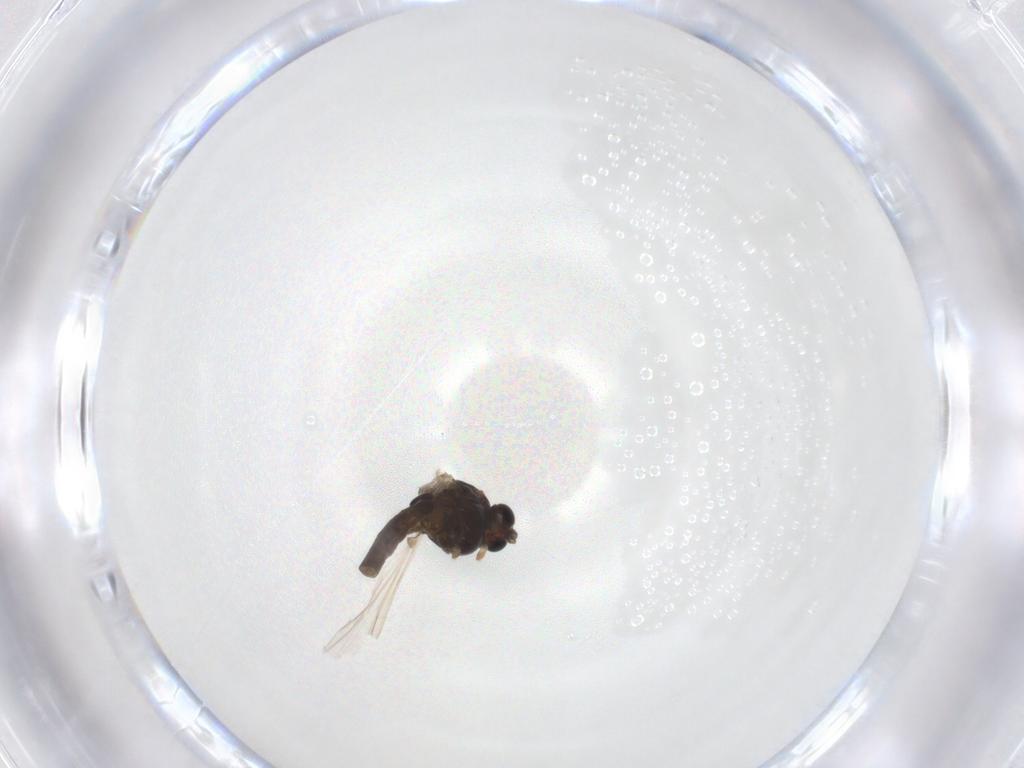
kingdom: Animalia
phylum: Arthropoda
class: Insecta
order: Diptera
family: Chironomidae
